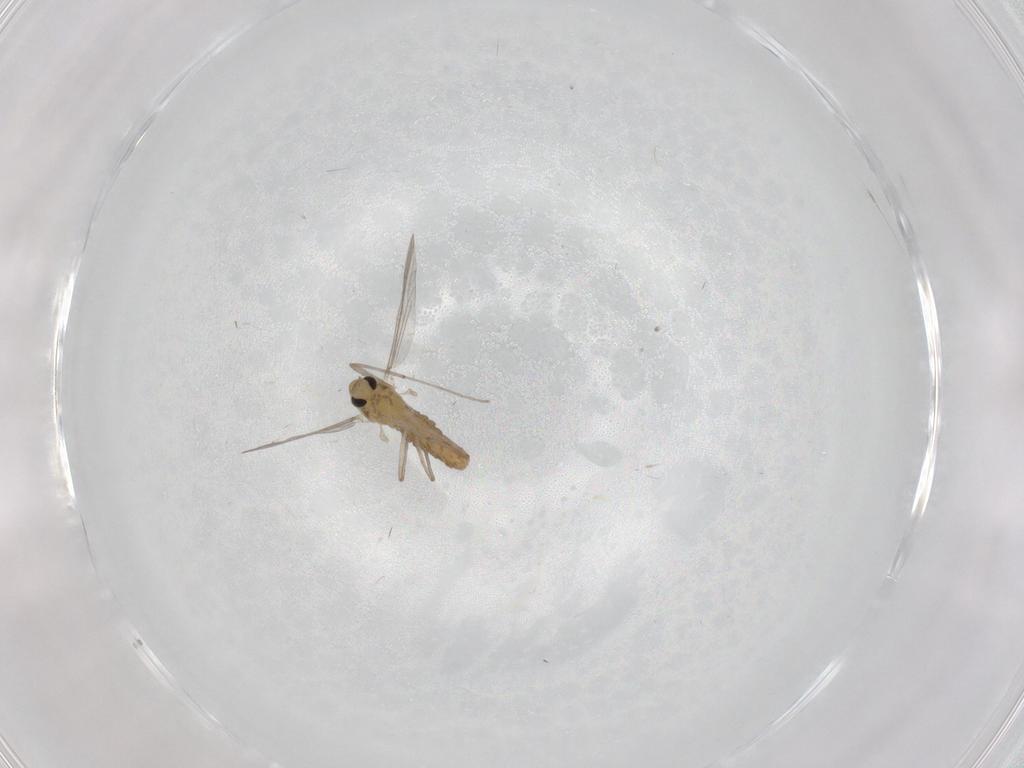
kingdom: Animalia
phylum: Arthropoda
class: Insecta
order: Diptera
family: Chironomidae
